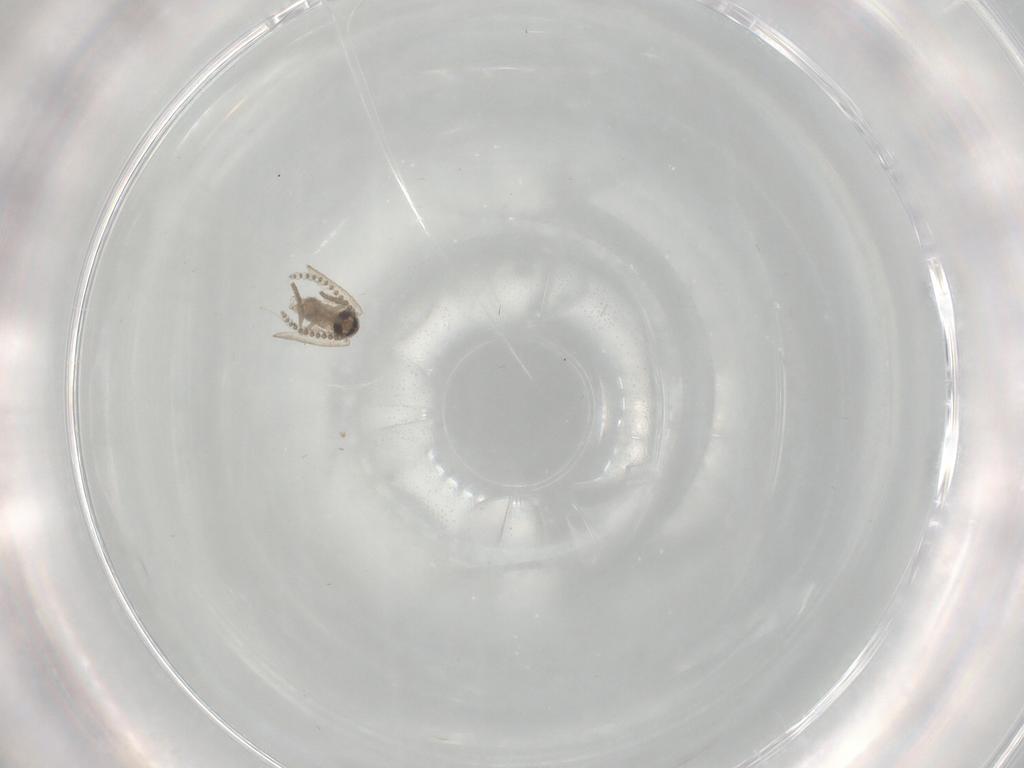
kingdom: Animalia
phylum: Arthropoda
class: Insecta
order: Diptera
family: Psychodidae
